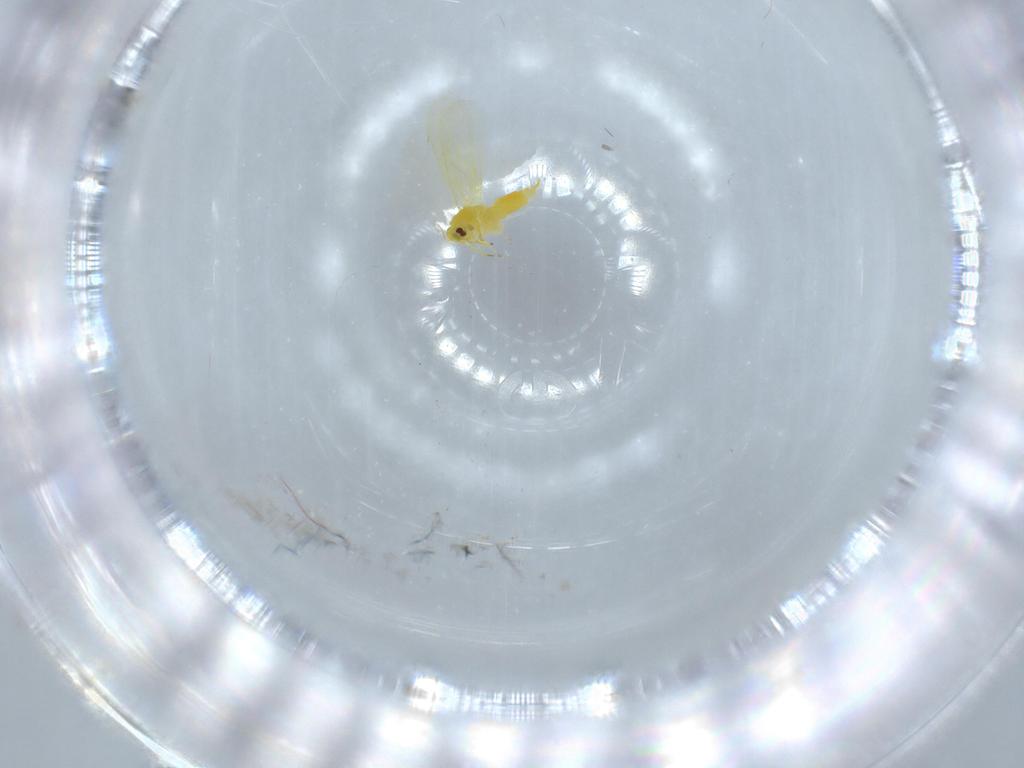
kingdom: Animalia
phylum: Arthropoda
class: Insecta
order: Hemiptera
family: Aleyrodidae
